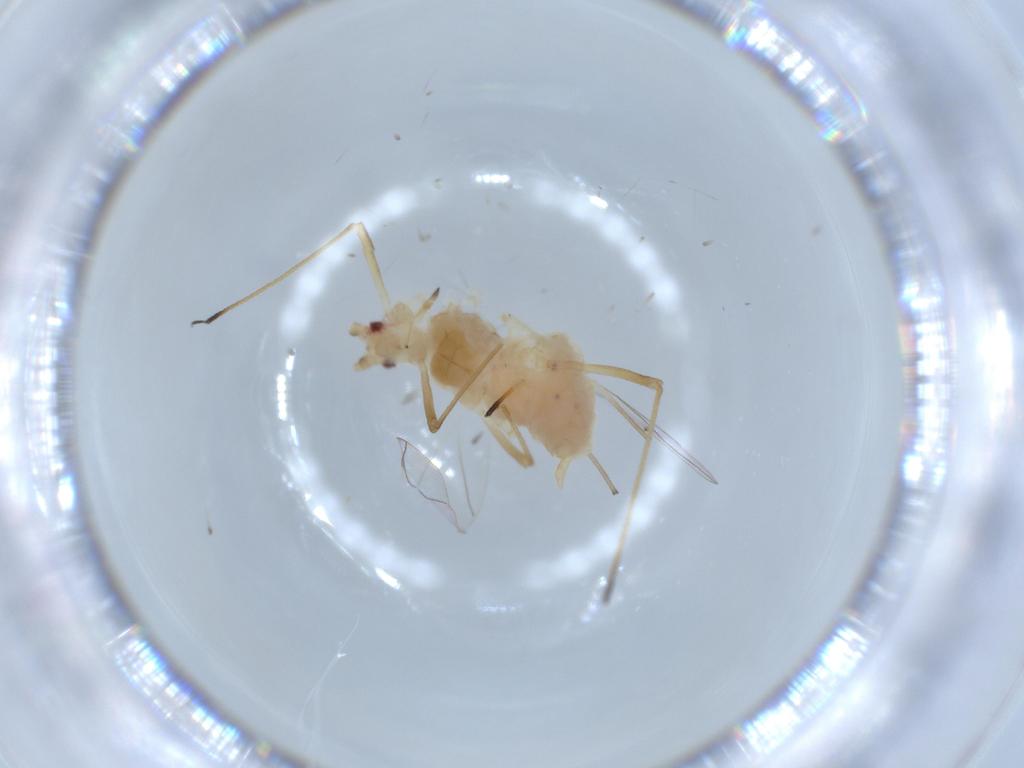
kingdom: Animalia
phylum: Arthropoda
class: Insecta
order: Hemiptera
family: Aphididae
